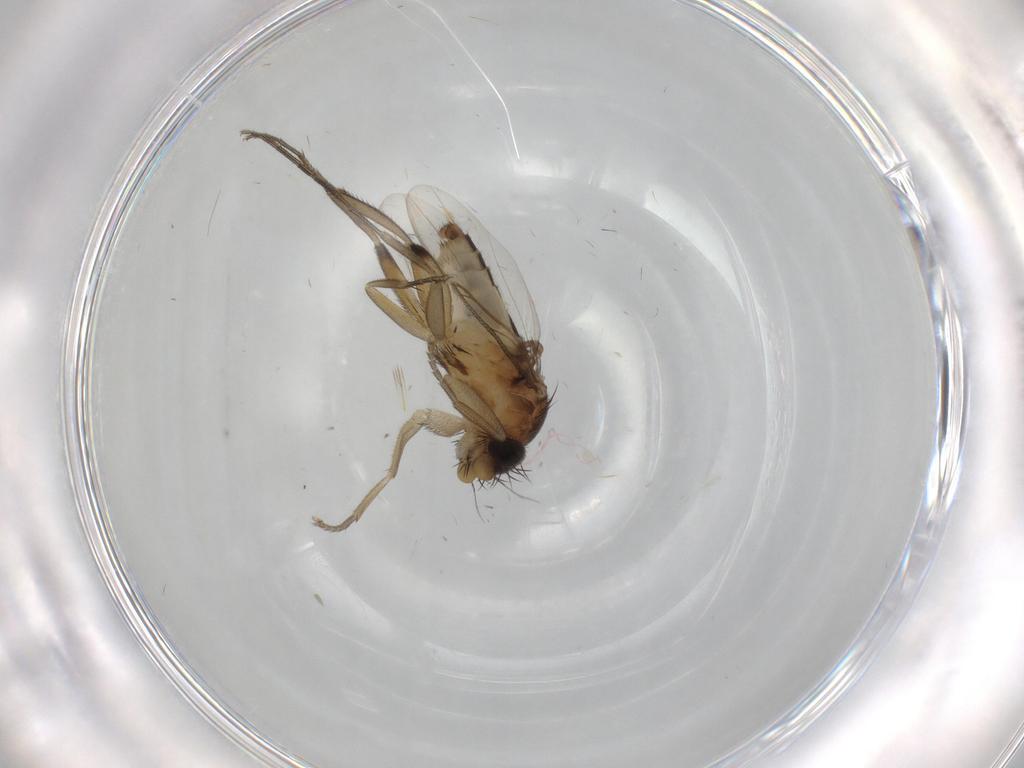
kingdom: Animalia
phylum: Arthropoda
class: Insecta
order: Diptera
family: Phoridae
